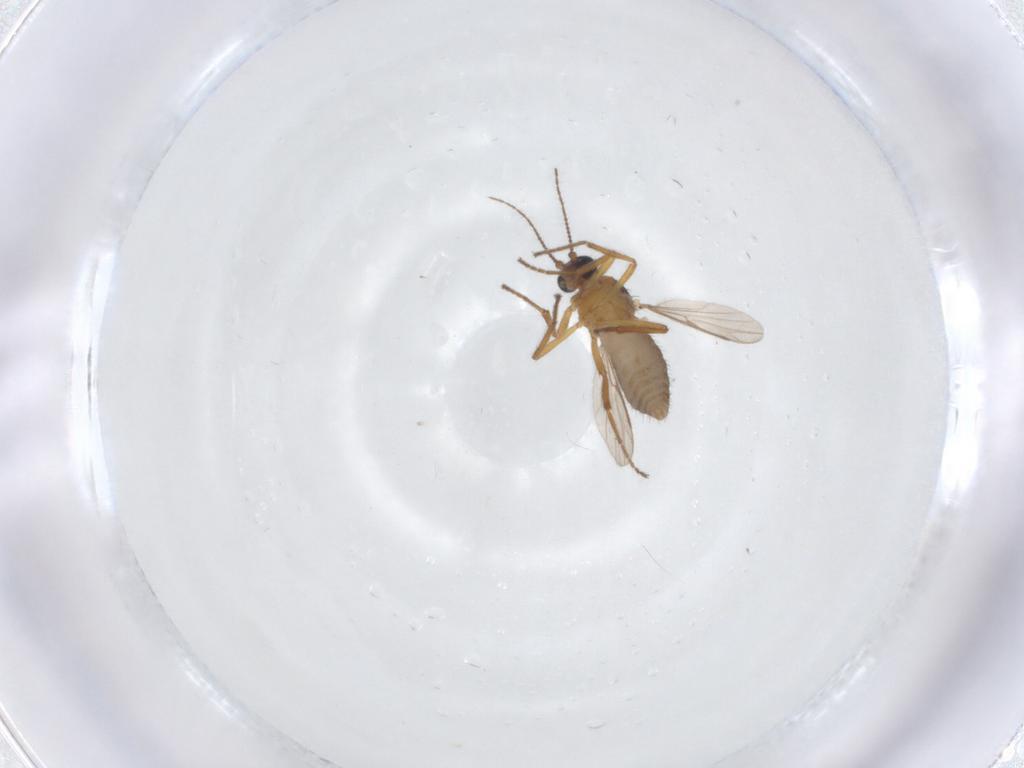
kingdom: Animalia
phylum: Arthropoda
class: Insecta
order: Diptera
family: Ceratopogonidae
